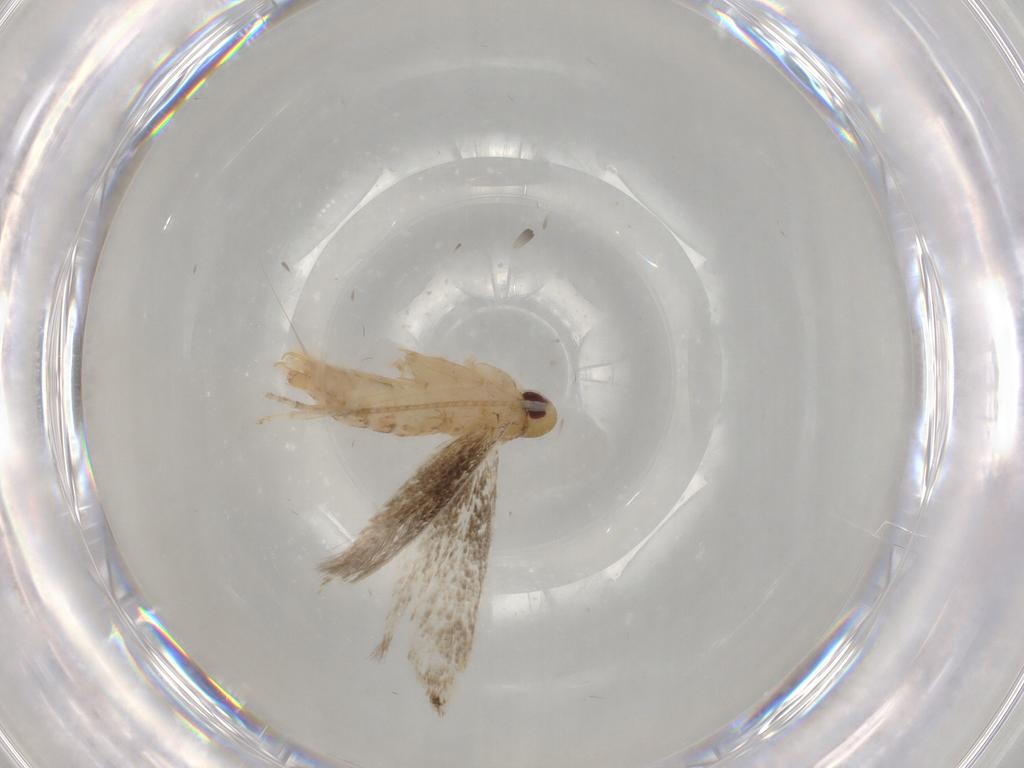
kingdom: Animalia
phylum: Arthropoda
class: Insecta
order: Lepidoptera
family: Momphidae
